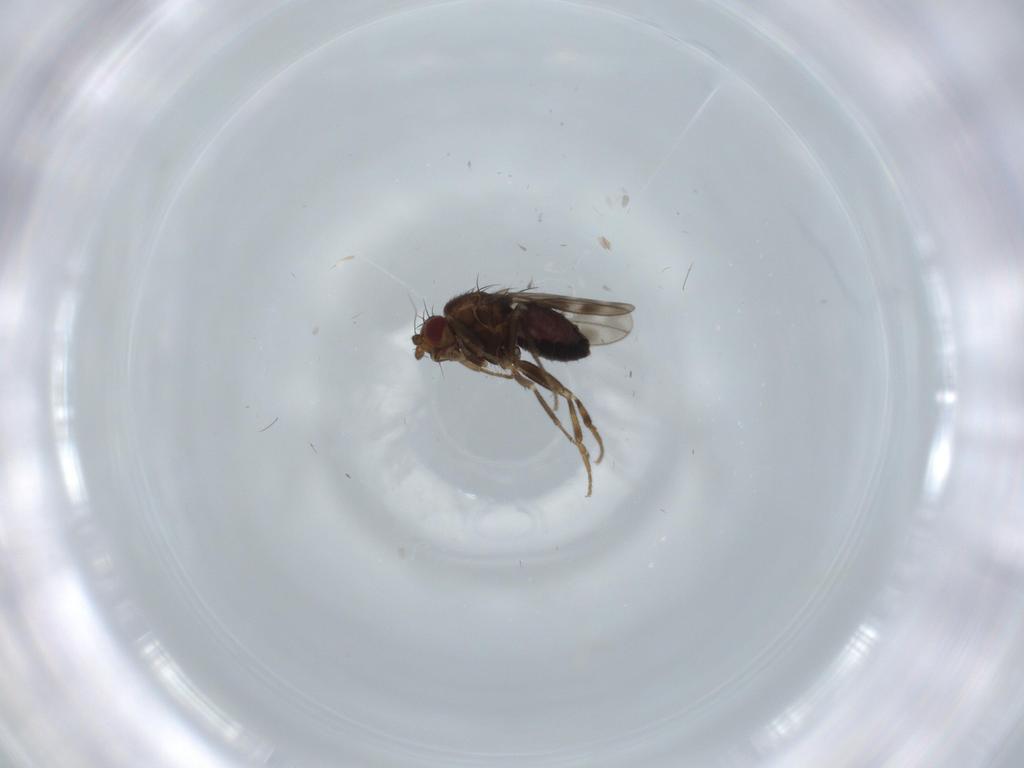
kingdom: Animalia
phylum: Arthropoda
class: Insecta
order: Diptera
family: Sphaeroceridae
